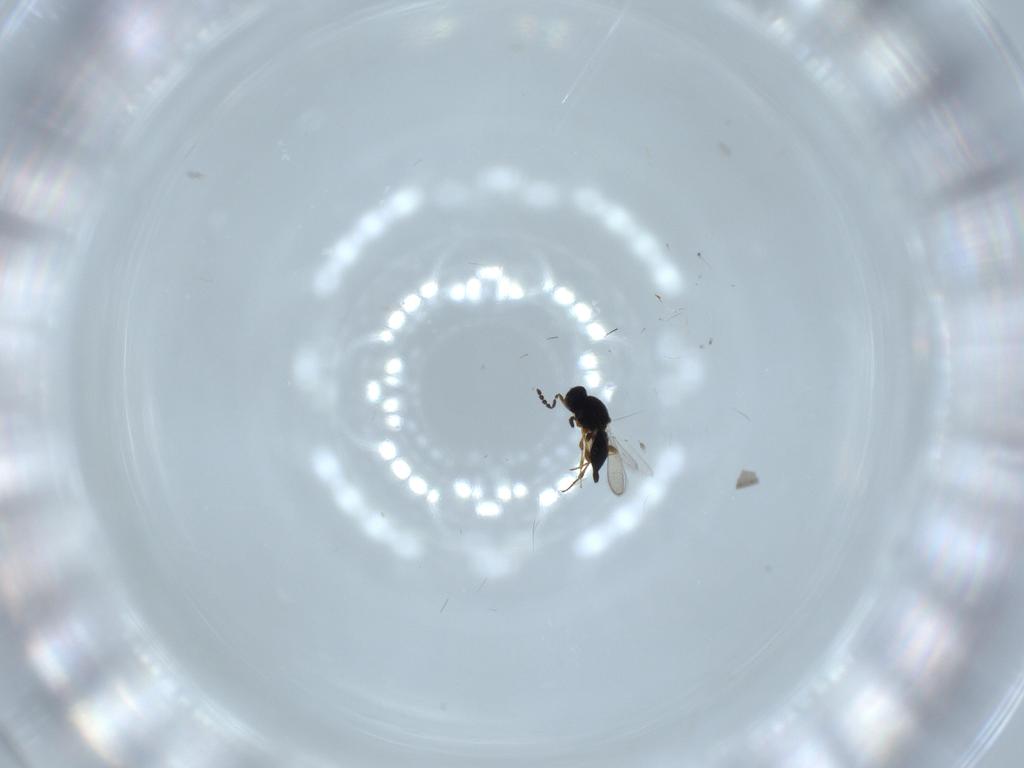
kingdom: Animalia
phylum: Arthropoda
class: Insecta
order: Hymenoptera
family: Platygastridae
